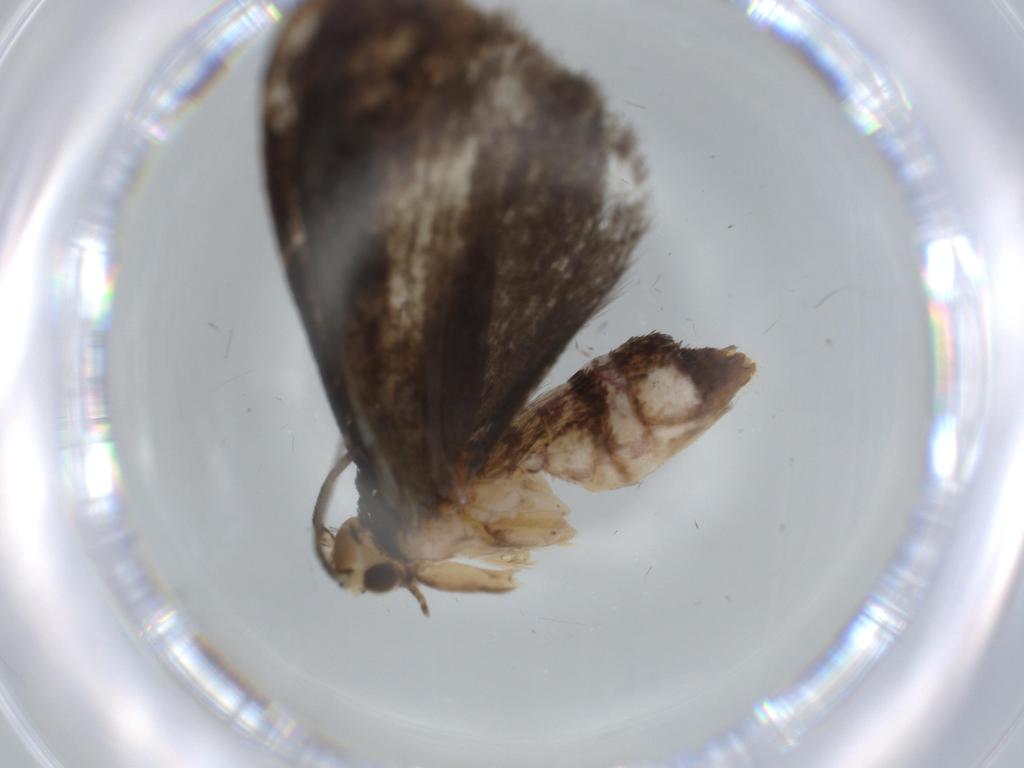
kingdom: Animalia
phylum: Arthropoda
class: Insecta
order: Lepidoptera
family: Dryadaulidae
